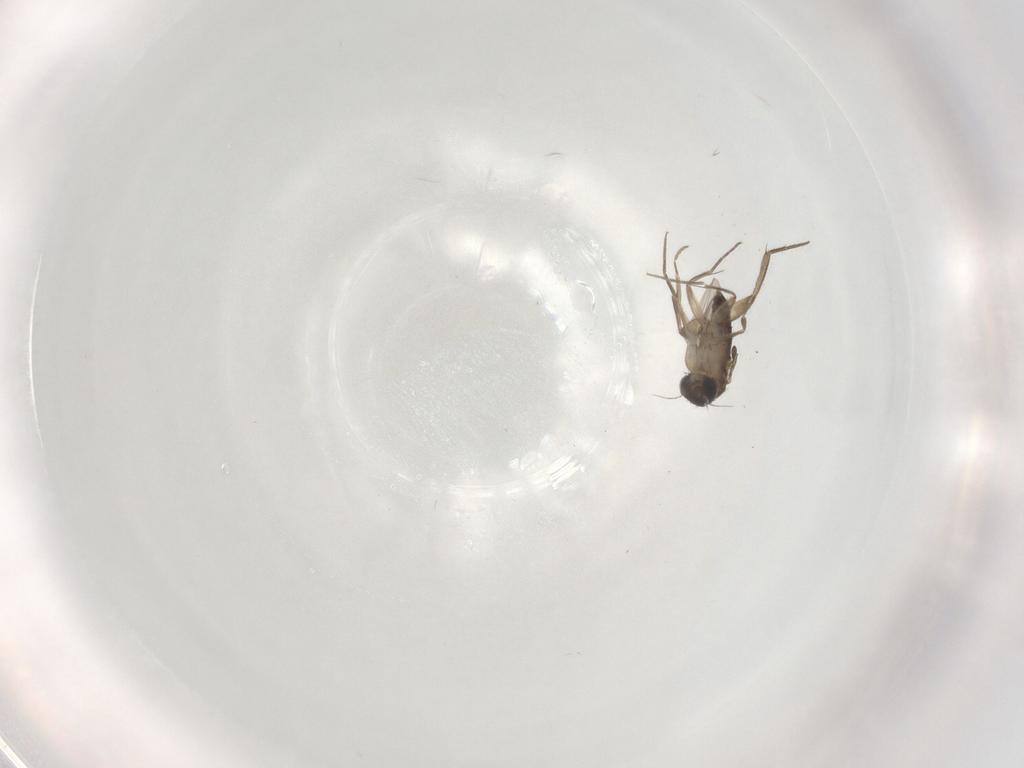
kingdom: Animalia
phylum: Arthropoda
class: Insecta
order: Diptera
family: Phoridae
